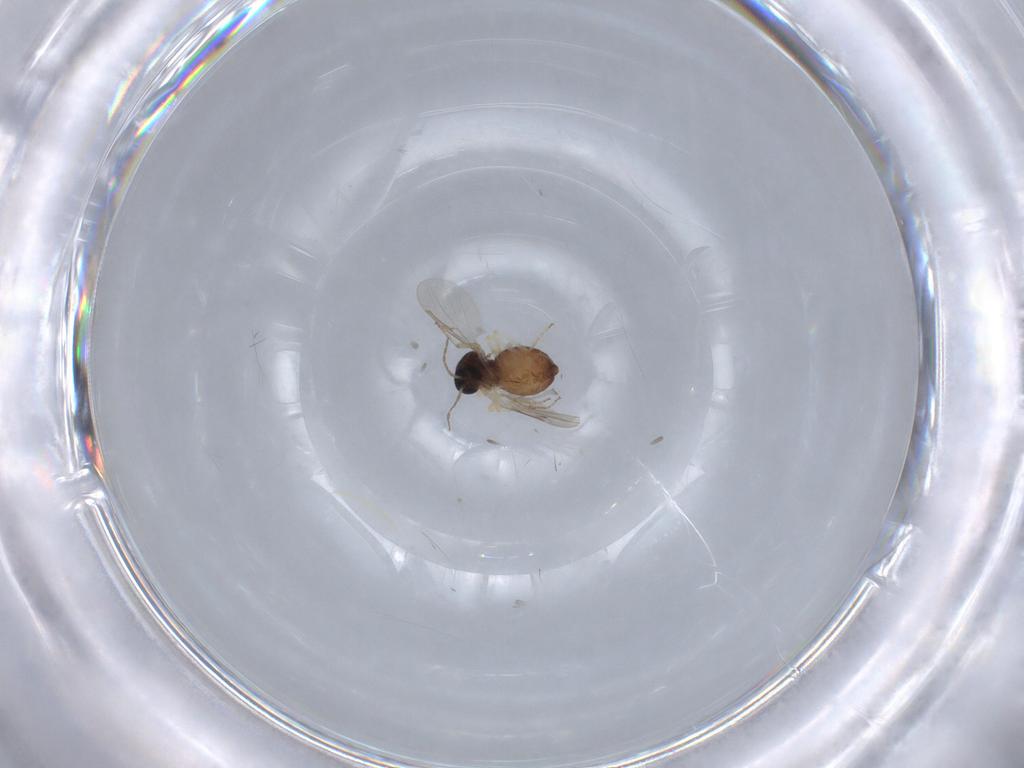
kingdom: Animalia
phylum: Arthropoda
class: Insecta
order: Diptera
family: Ceratopogonidae
